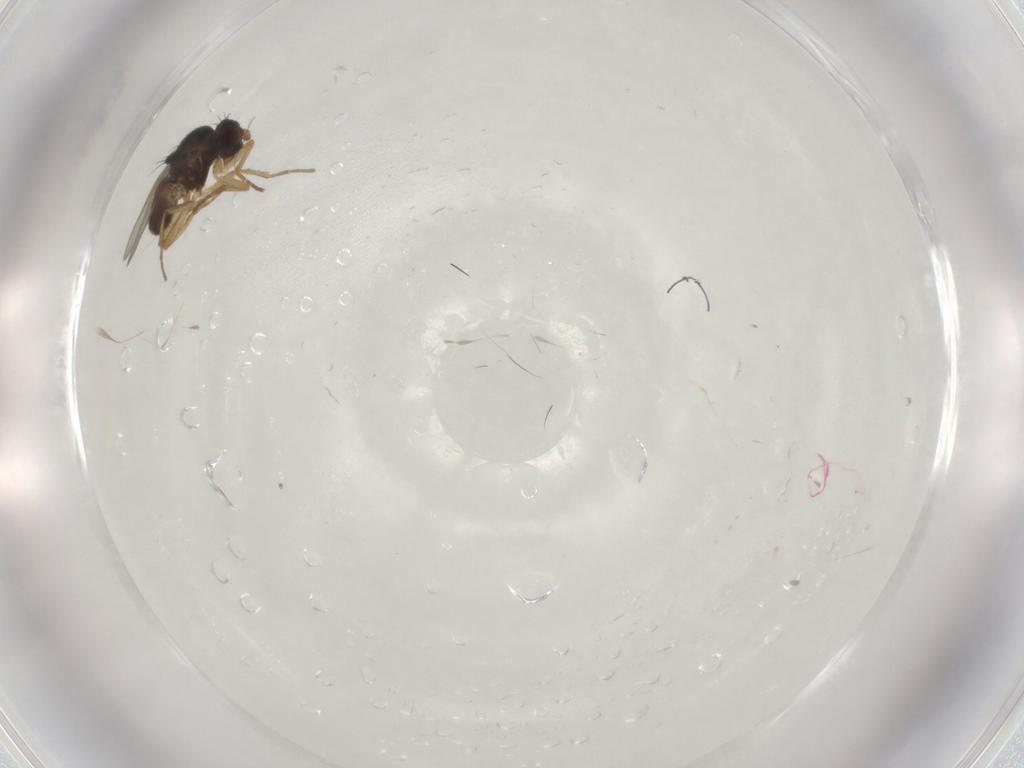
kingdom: Animalia
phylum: Arthropoda
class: Insecta
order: Diptera
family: Sphaeroceridae
